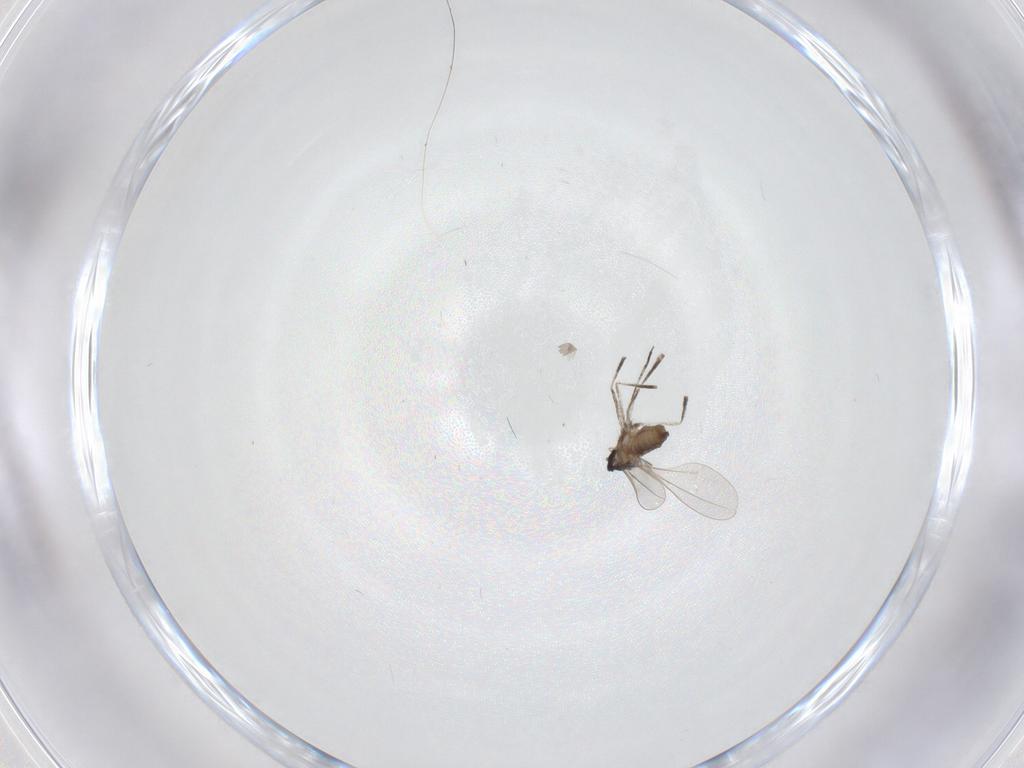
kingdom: Animalia
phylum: Arthropoda
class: Insecta
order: Diptera
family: Cecidomyiidae
